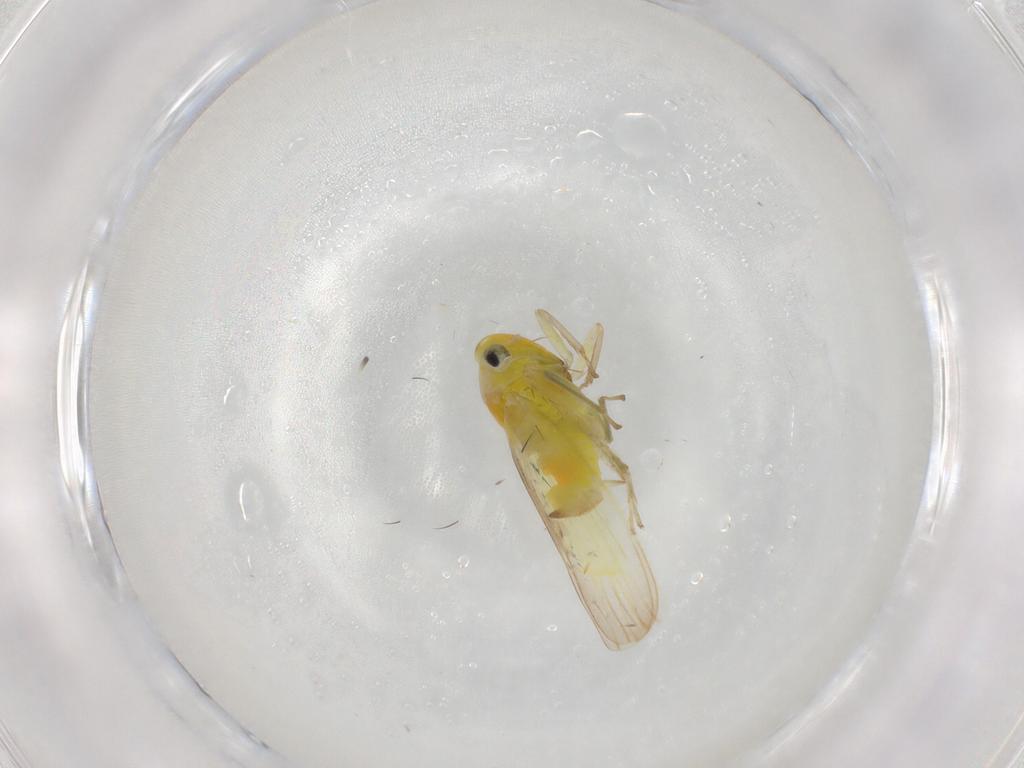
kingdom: Animalia
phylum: Arthropoda
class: Insecta
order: Hemiptera
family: Cicadellidae
